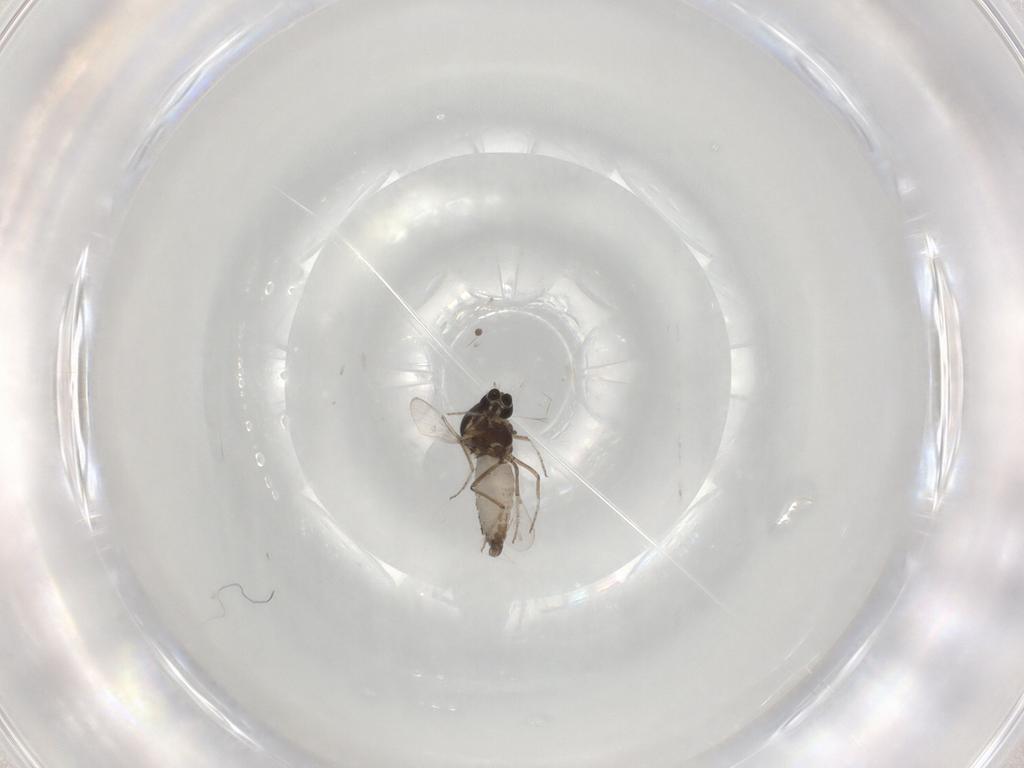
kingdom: Animalia
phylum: Arthropoda
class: Insecta
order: Diptera
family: Ceratopogonidae
